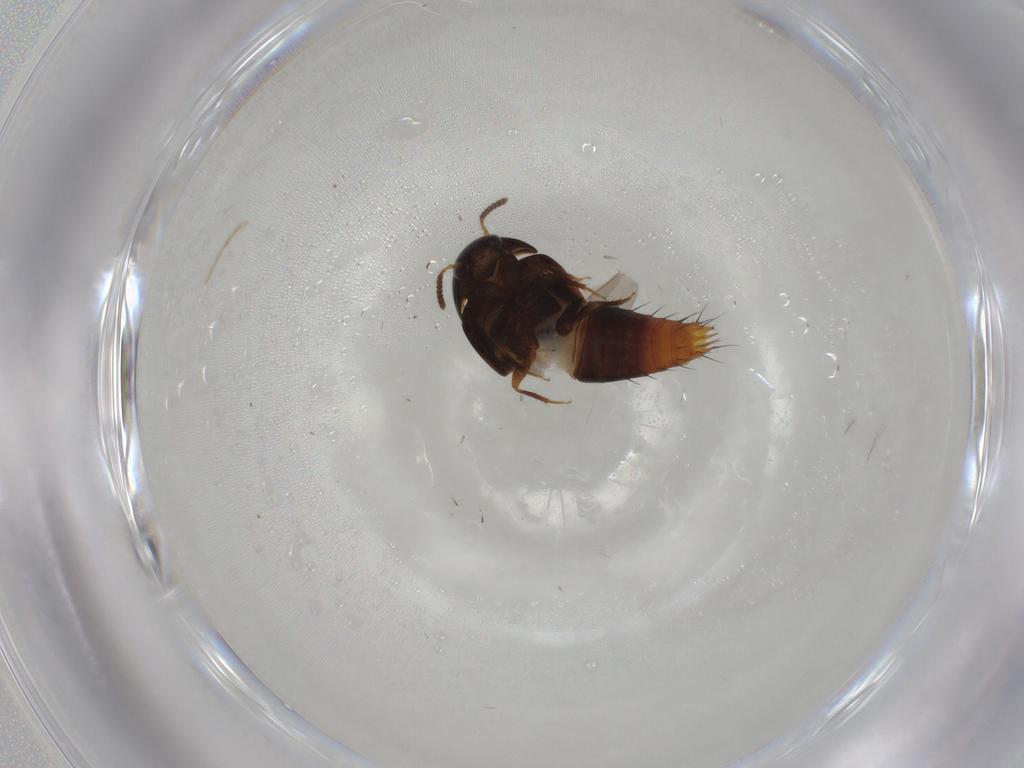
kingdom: Animalia
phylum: Arthropoda
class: Insecta
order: Coleoptera
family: Staphylinidae
